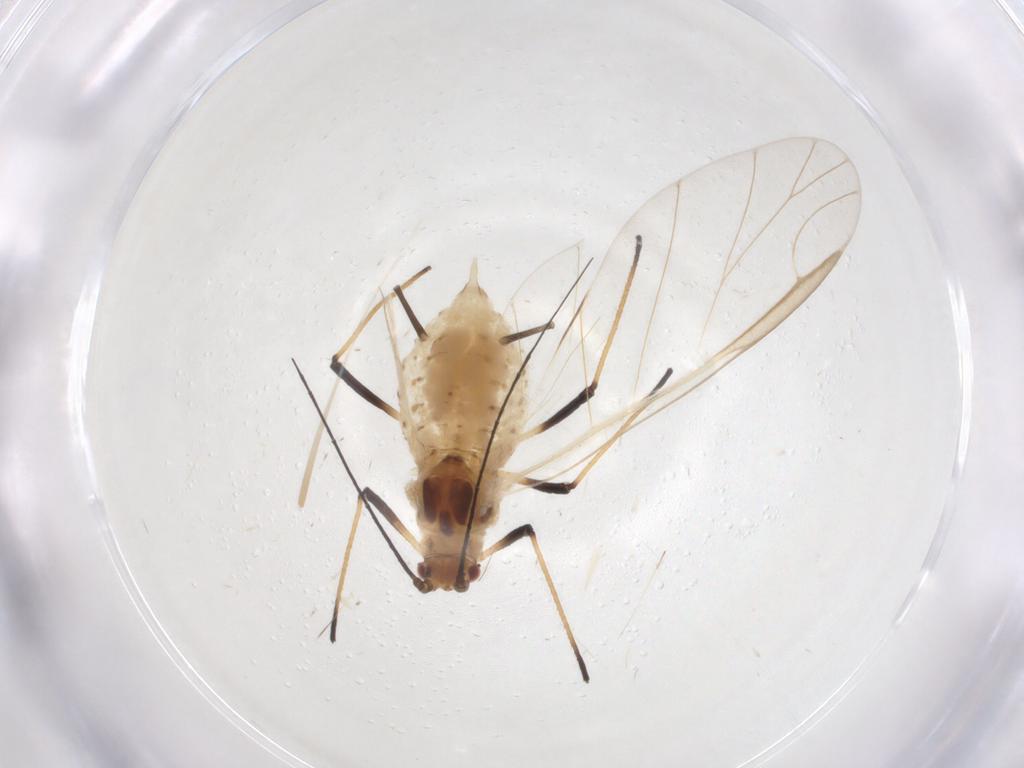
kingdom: Animalia
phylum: Arthropoda
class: Insecta
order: Hemiptera
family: Aphididae
